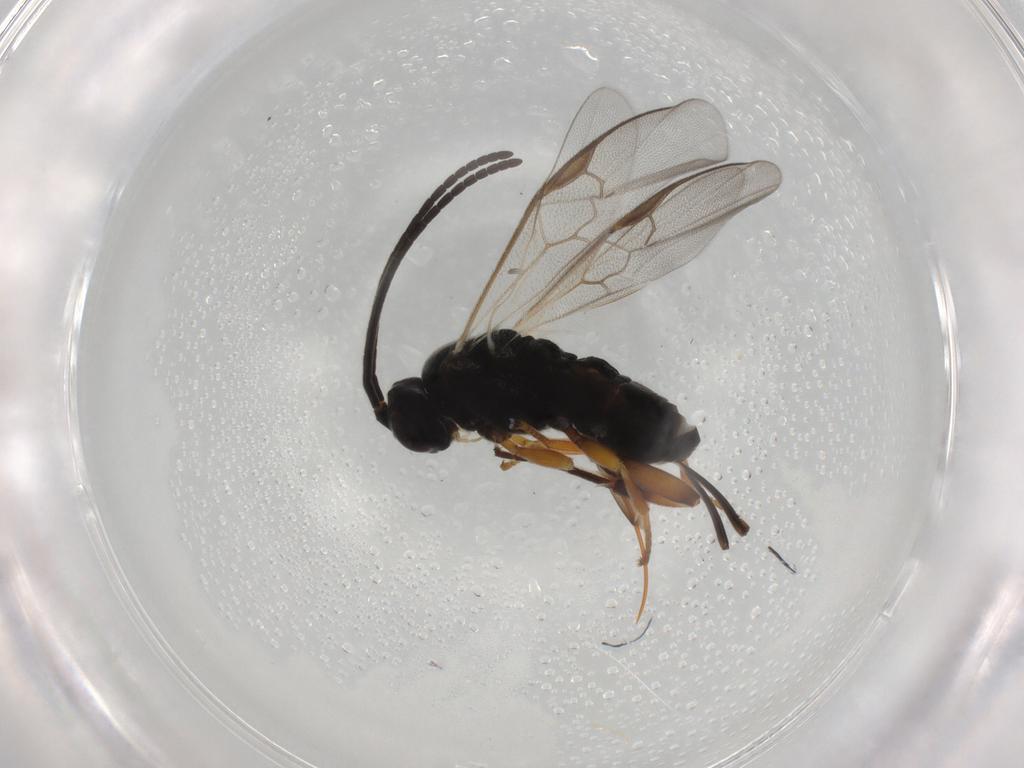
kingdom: Animalia
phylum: Arthropoda
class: Insecta
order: Hymenoptera
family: Braconidae
